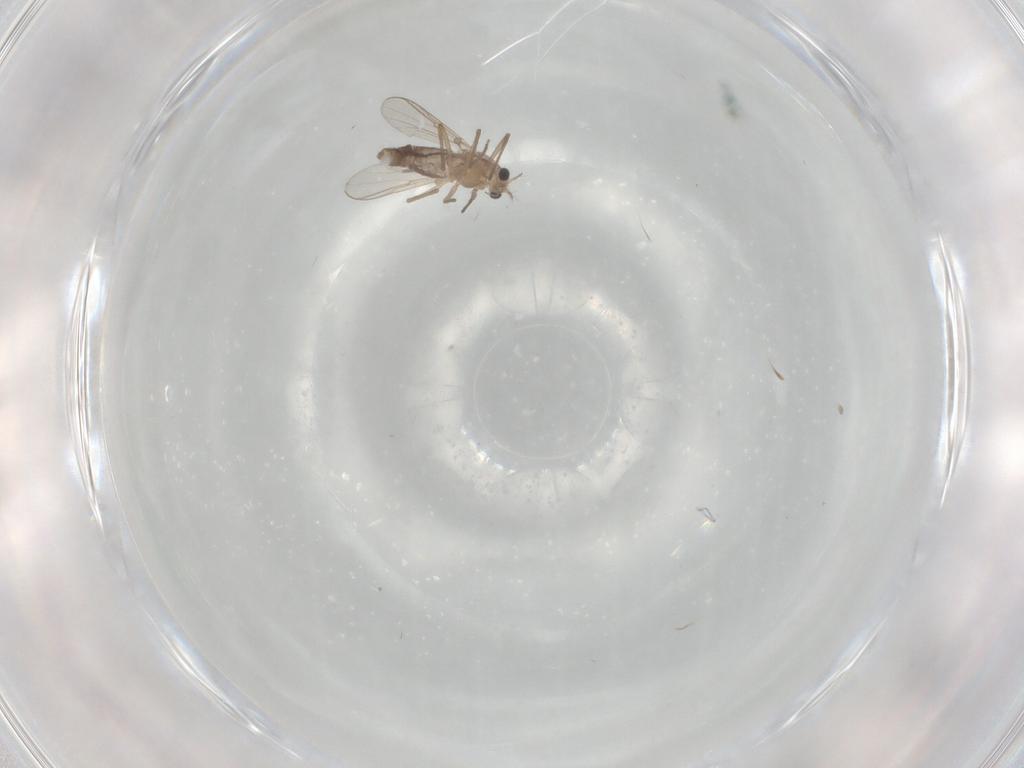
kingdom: Animalia
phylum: Arthropoda
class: Insecta
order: Diptera
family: Chironomidae
